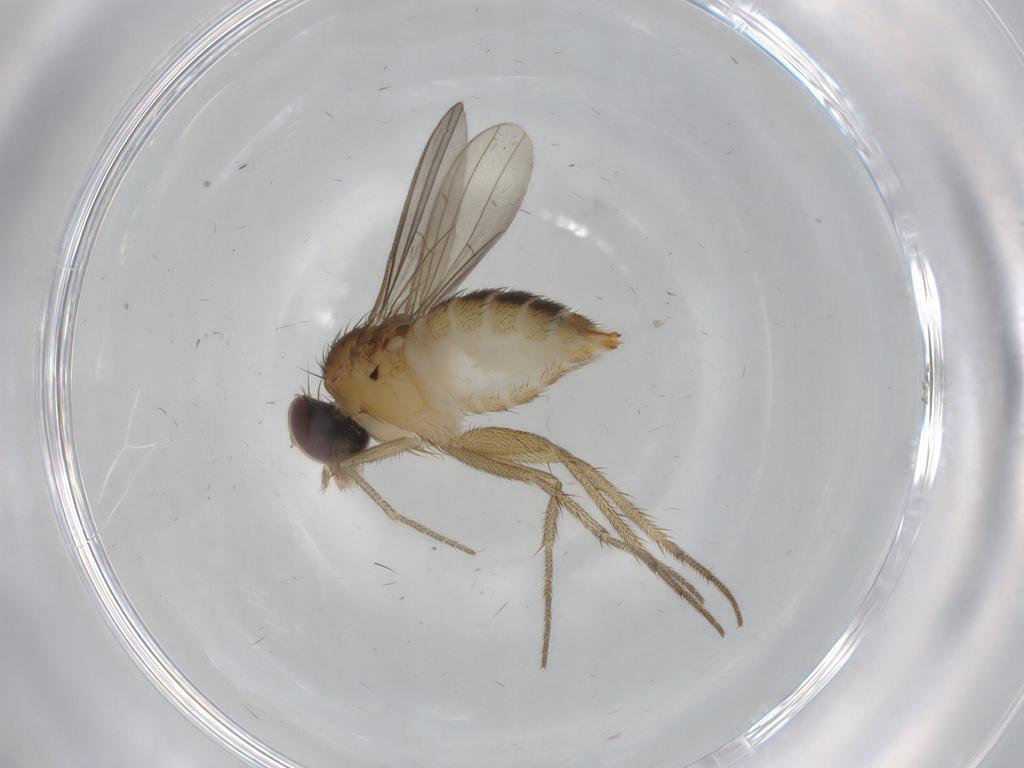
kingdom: Animalia
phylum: Arthropoda
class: Insecta
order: Diptera
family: Dolichopodidae
